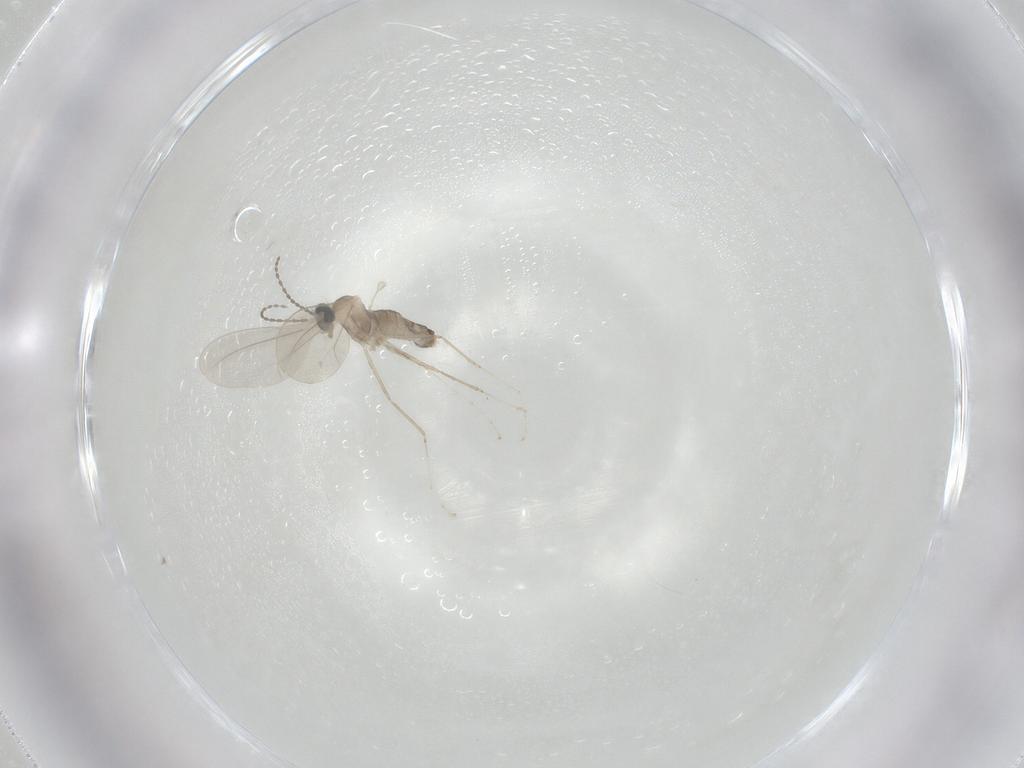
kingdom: Animalia
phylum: Arthropoda
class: Insecta
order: Diptera
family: Cecidomyiidae
